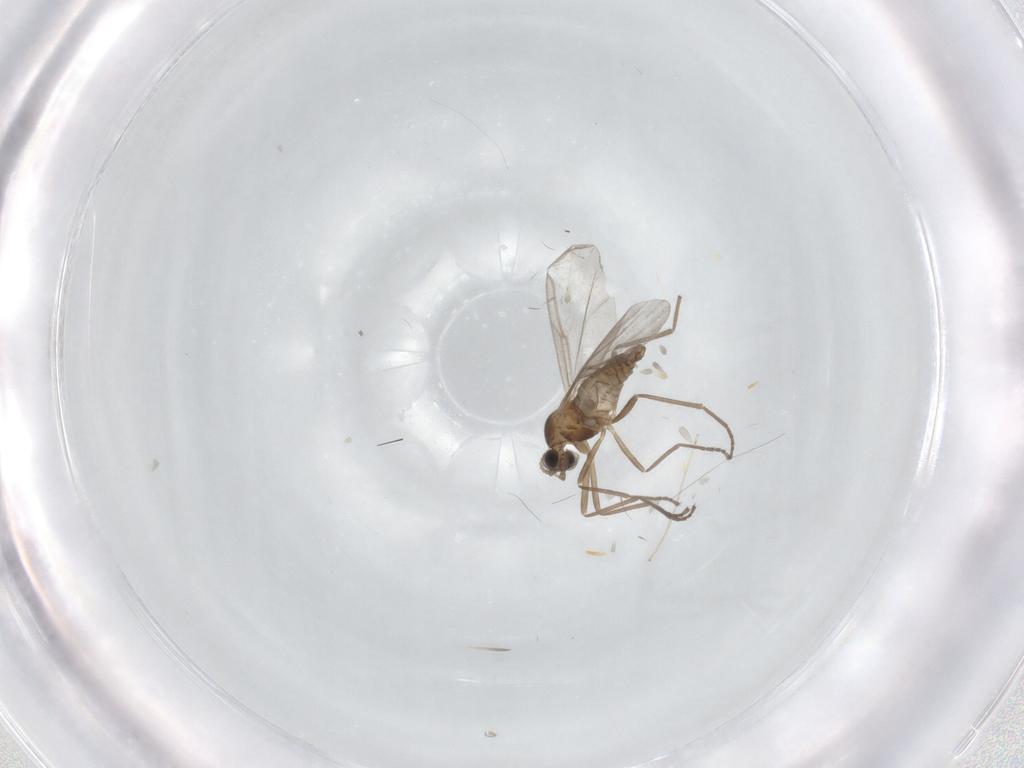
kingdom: Animalia
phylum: Arthropoda
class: Insecta
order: Diptera
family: Cecidomyiidae
